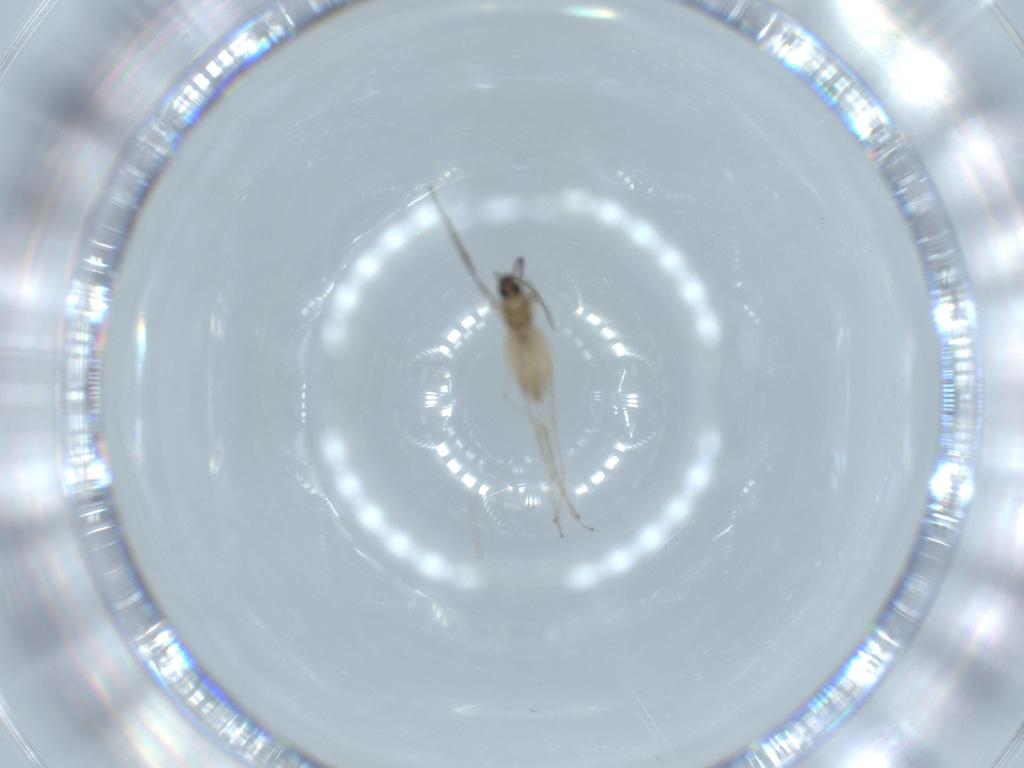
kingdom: Animalia
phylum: Arthropoda
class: Insecta
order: Diptera
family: Cecidomyiidae
